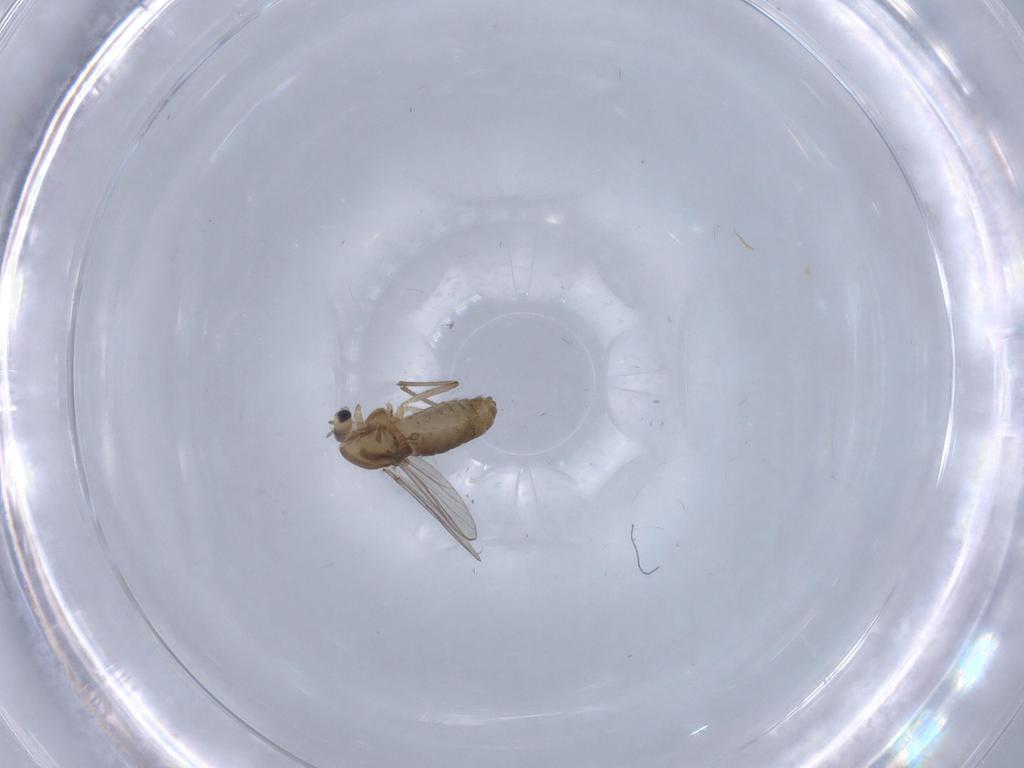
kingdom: Animalia
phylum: Arthropoda
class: Insecta
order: Diptera
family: Chironomidae
